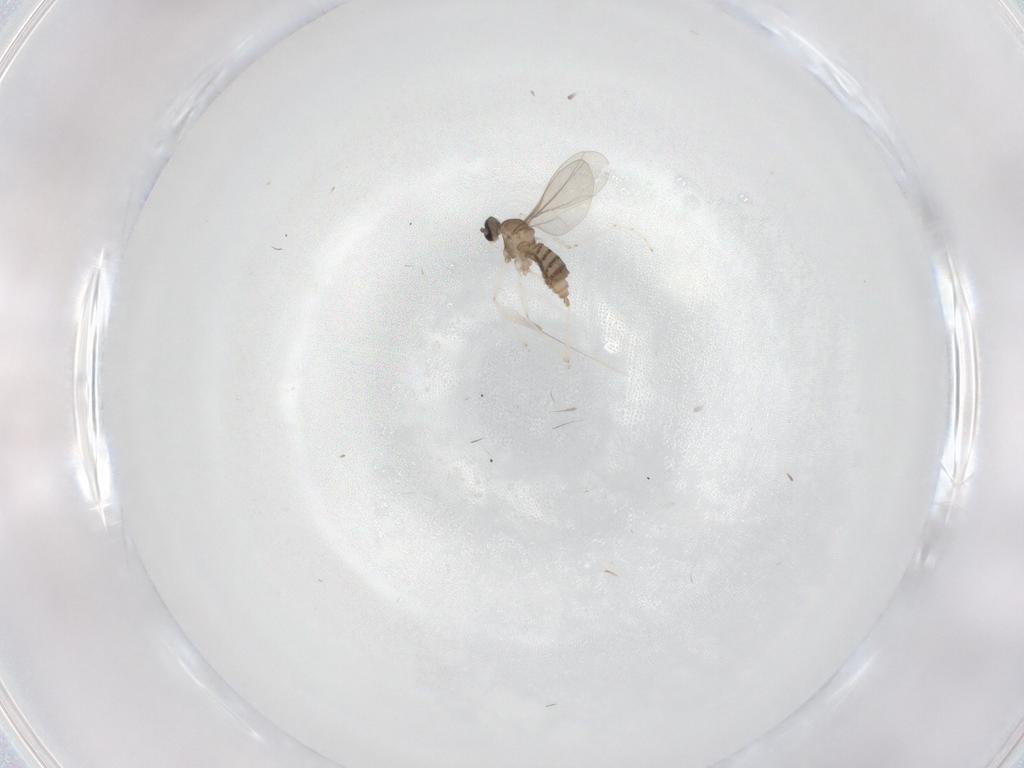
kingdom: Animalia
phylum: Arthropoda
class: Insecta
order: Diptera
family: Cecidomyiidae
